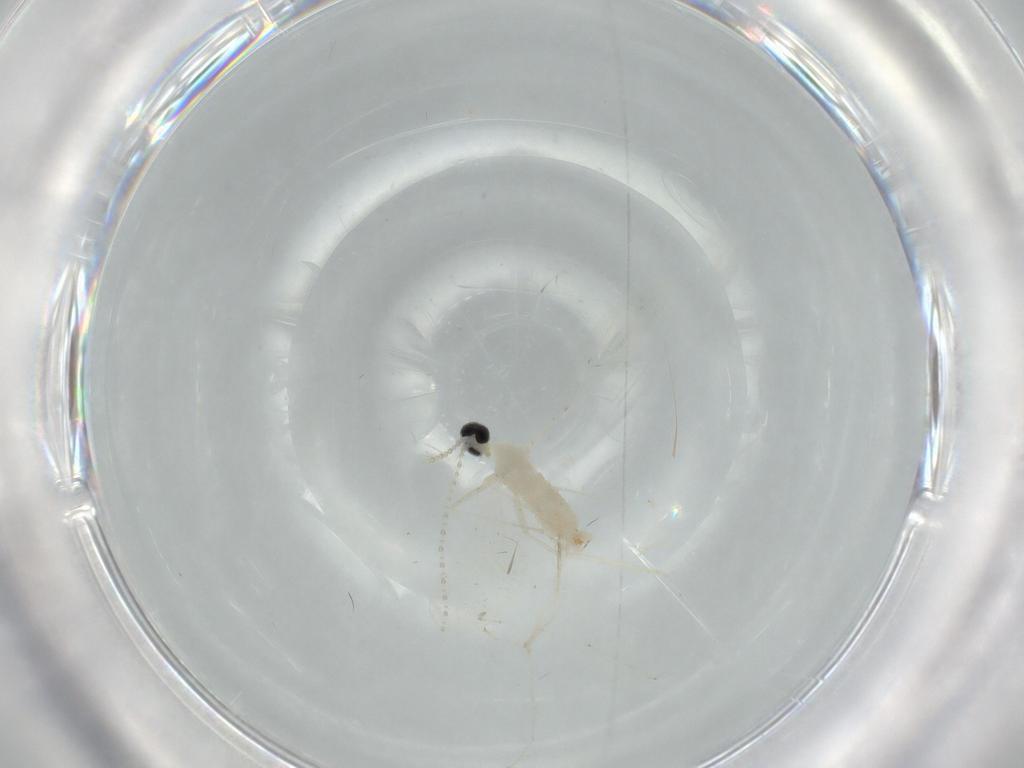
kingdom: Animalia
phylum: Arthropoda
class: Insecta
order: Diptera
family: Cecidomyiidae
